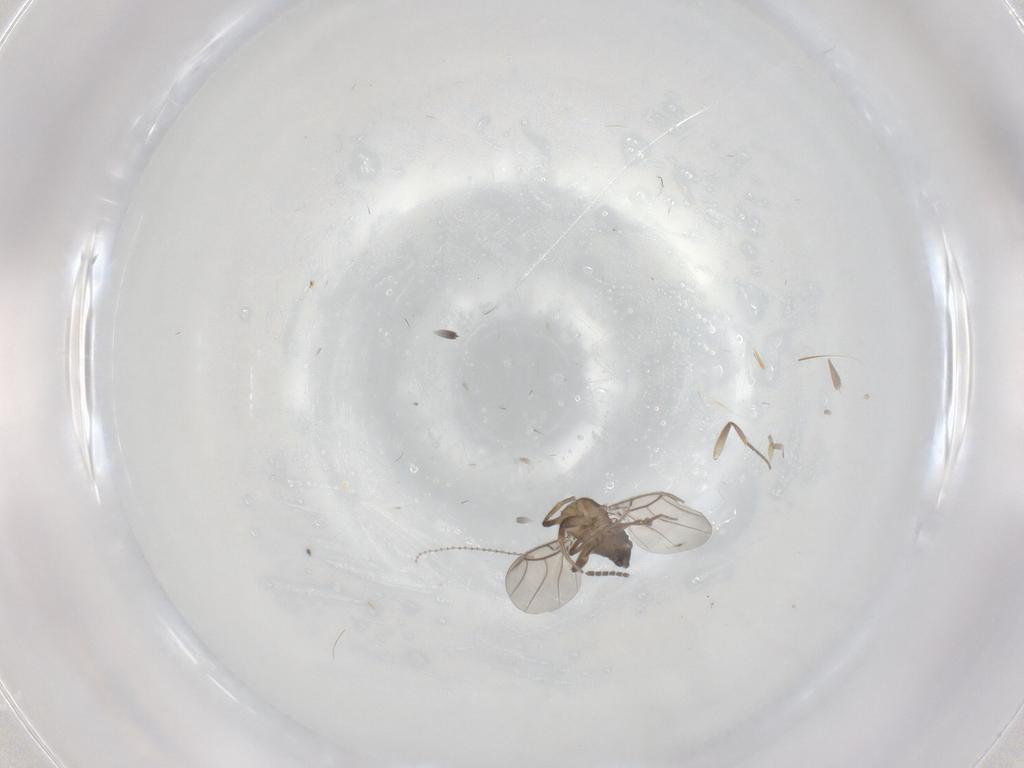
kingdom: Animalia
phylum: Arthropoda
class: Insecta
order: Diptera
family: Phoridae
